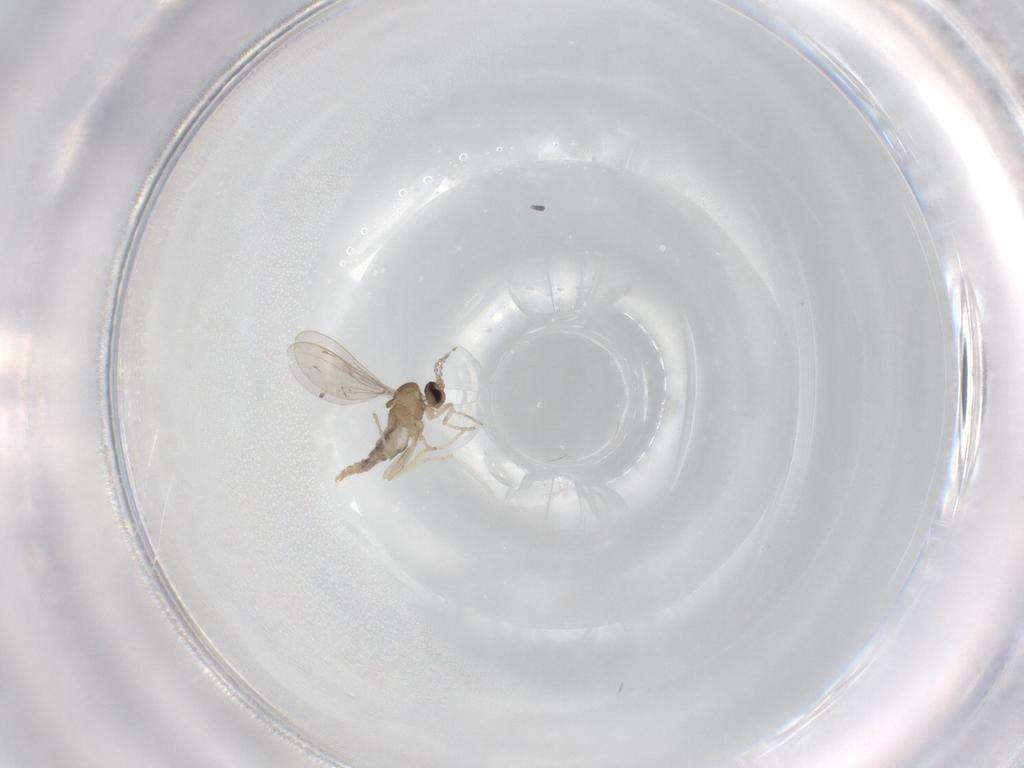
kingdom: Animalia
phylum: Arthropoda
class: Insecta
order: Diptera
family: Cecidomyiidae
